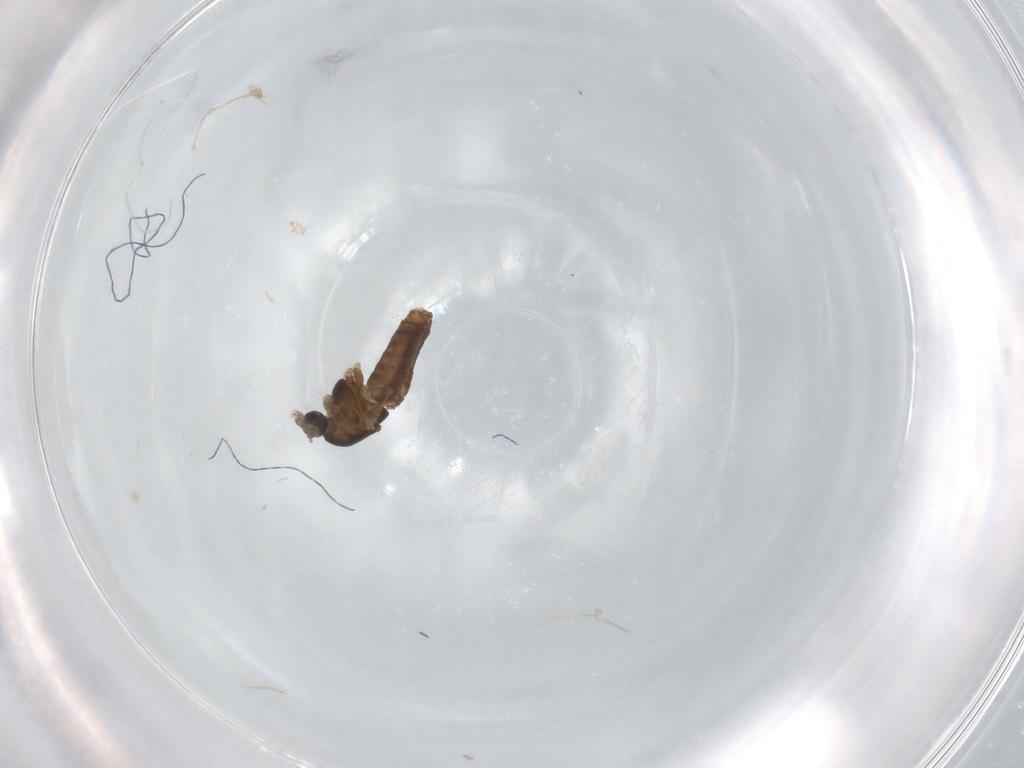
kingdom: Animalia
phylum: Arthropoda
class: Insecta
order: Diptera
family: Chironomidae
